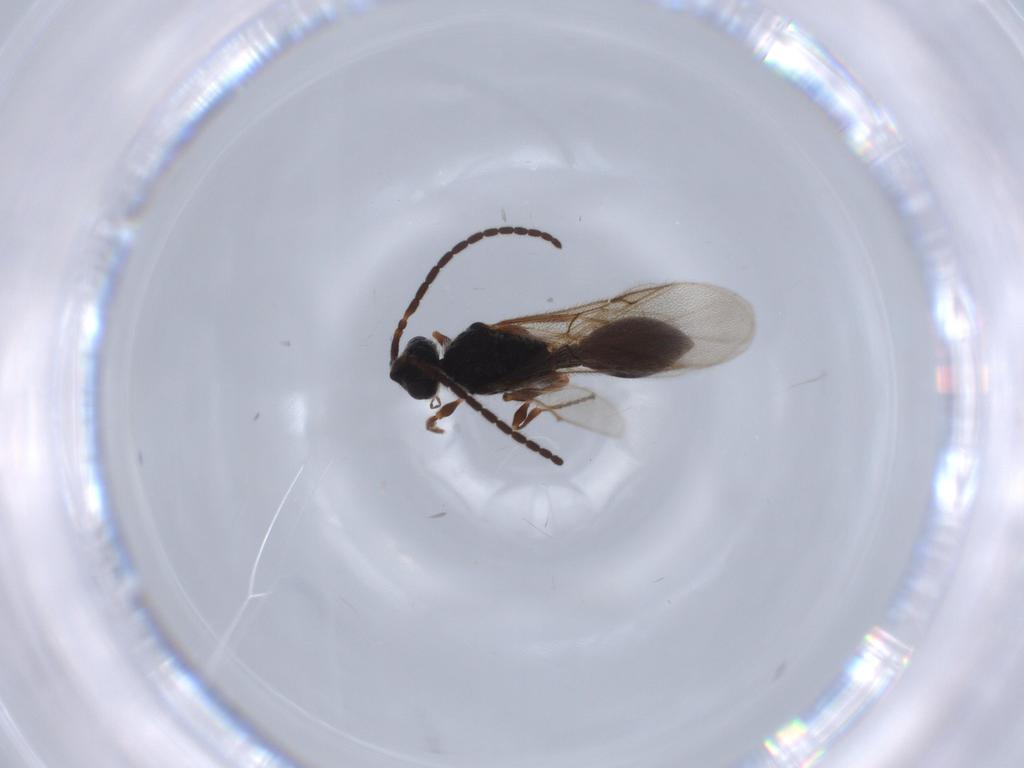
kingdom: Animalia
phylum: Arthropoda
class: Insecta
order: Hymenoptera
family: Diapriidae
